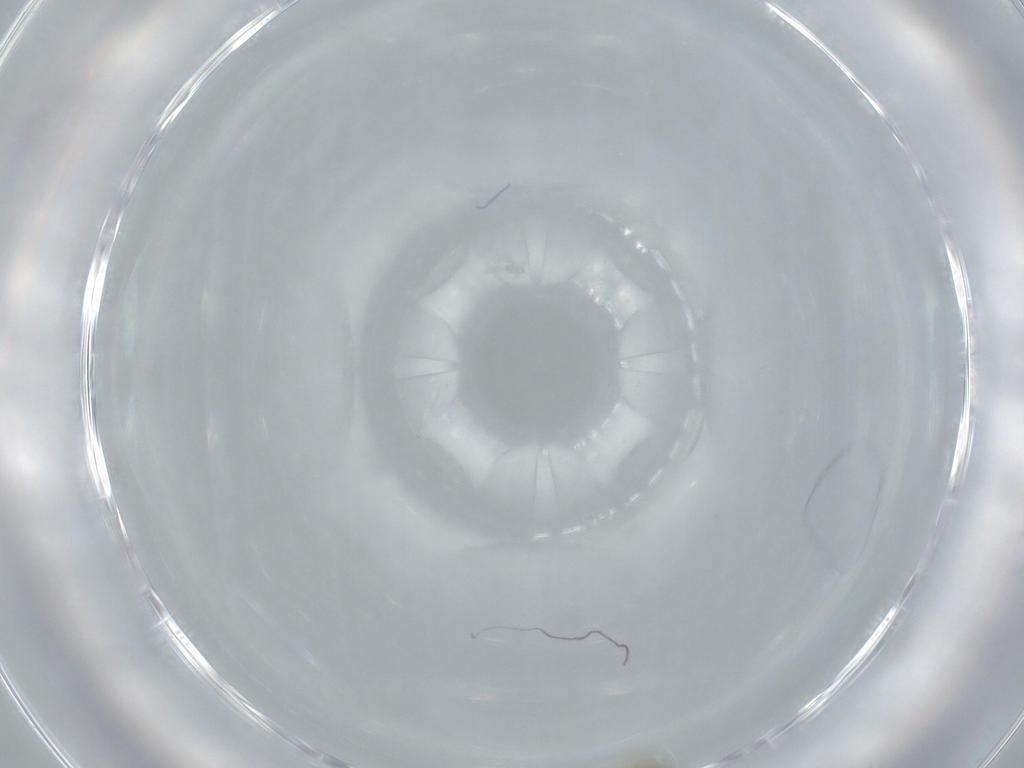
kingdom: Animalia
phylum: Arthropoda
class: Insecta
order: Diptera
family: Cecidomyiidae
